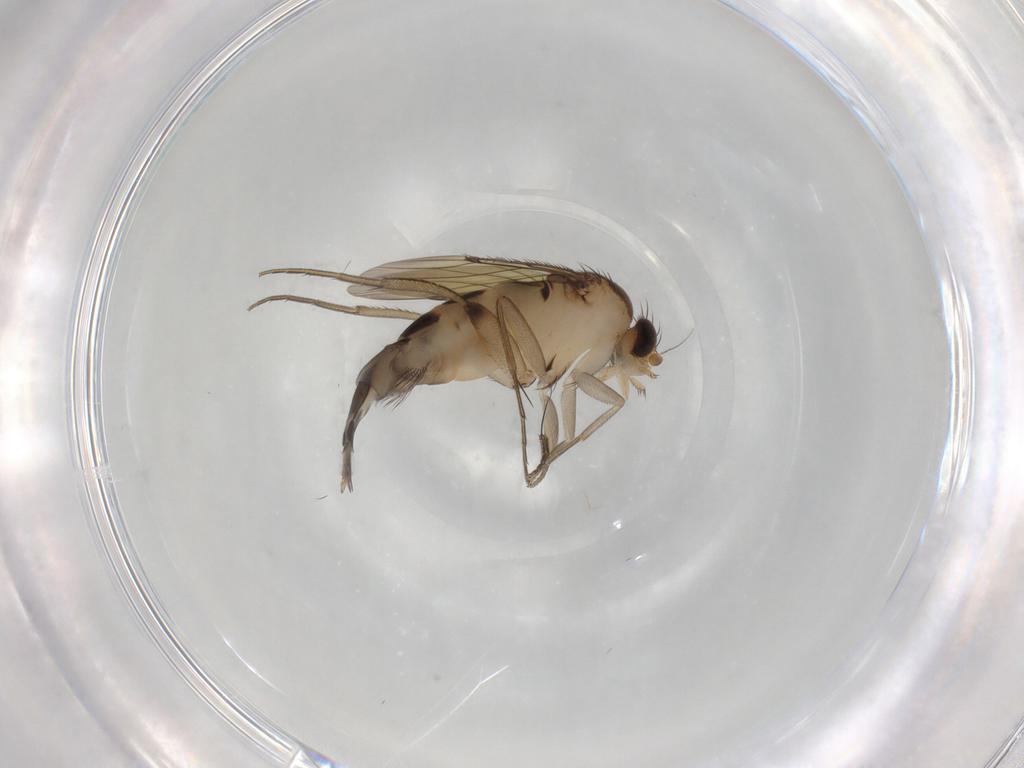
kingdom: Animalia
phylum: Arthropoda
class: Insecta
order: Diptera
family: Phoridae
